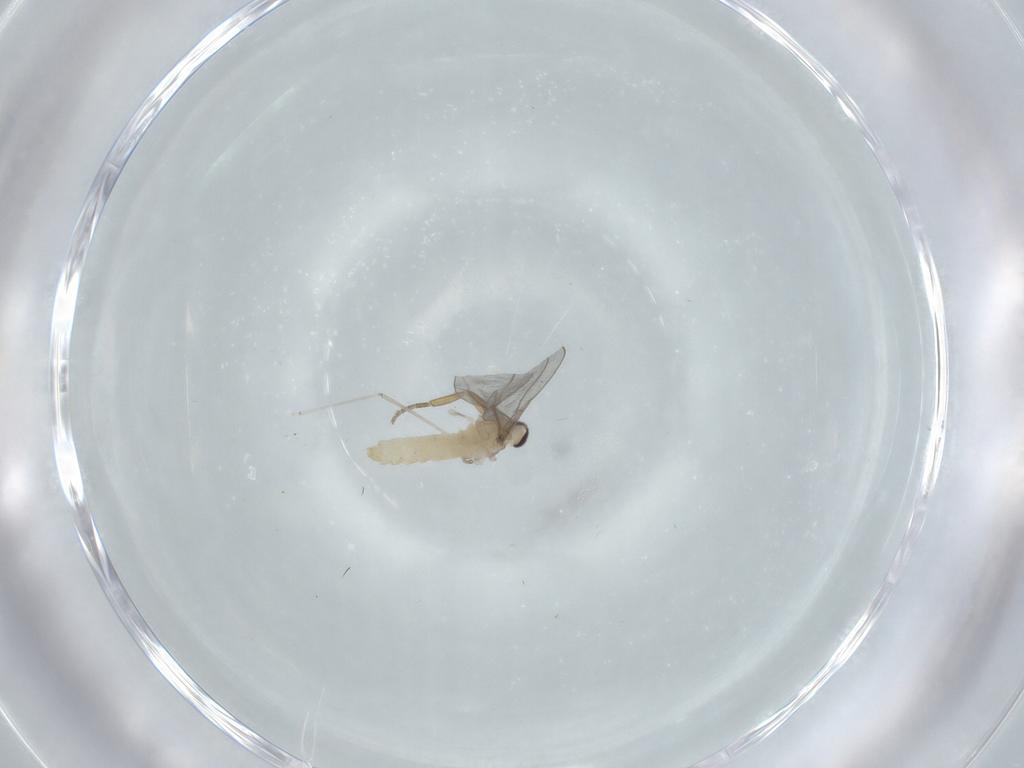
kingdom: Animalia
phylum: Arthropoda
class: Insecta
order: Diptera
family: Cecidomyiidae
